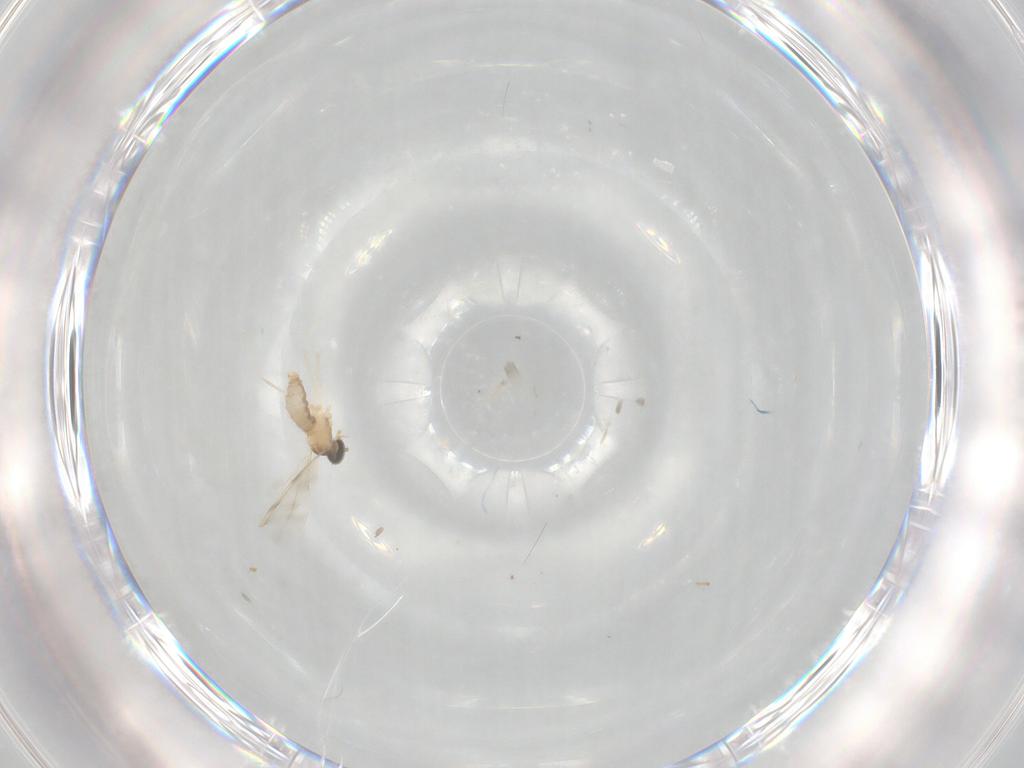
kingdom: Animalia
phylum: Arthropoda
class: Insecta
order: Diptera
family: Cecidomyiidae
